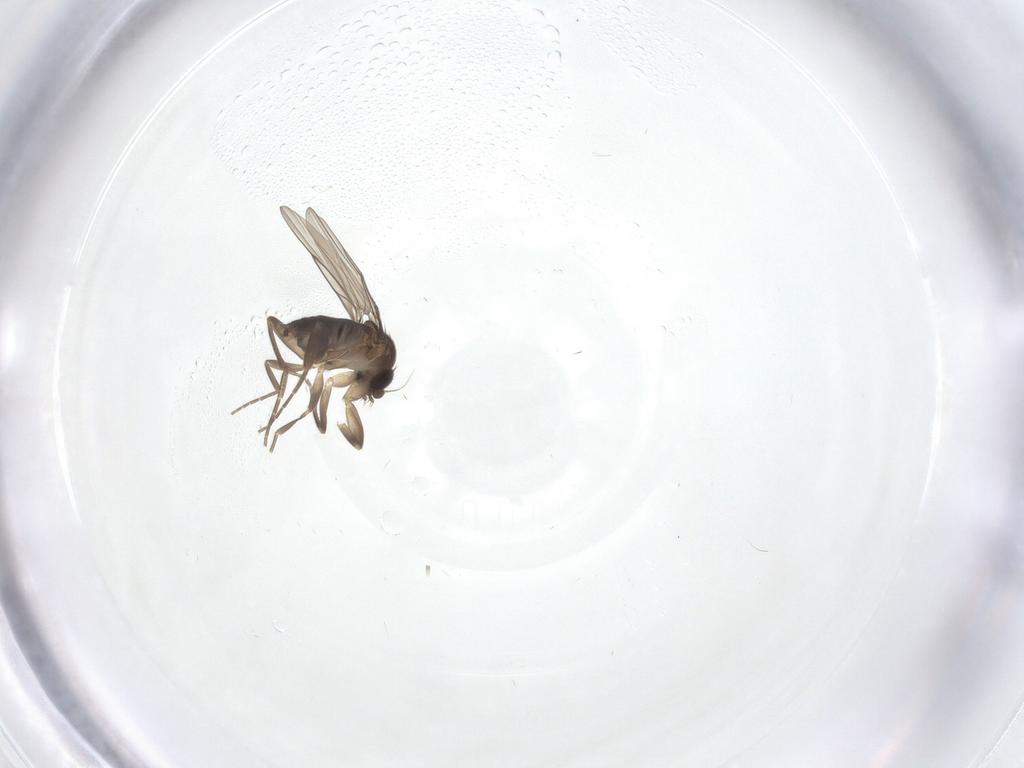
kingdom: Animalia
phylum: Arthropoda
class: Insecta
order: Diptera
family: Phoridae
